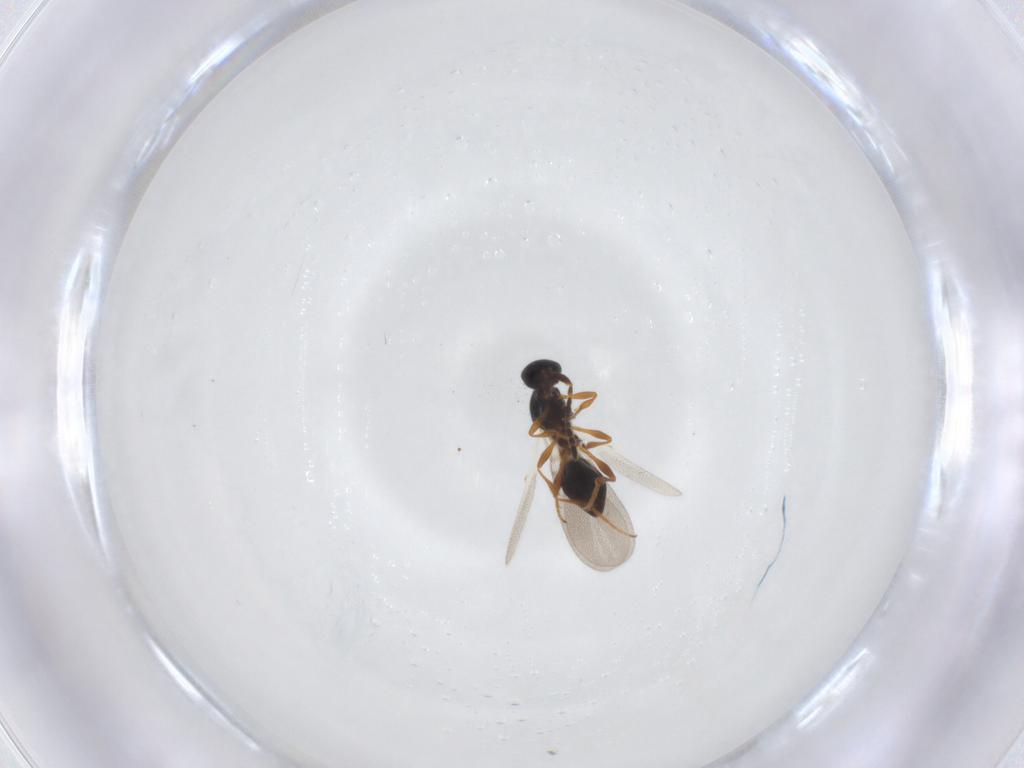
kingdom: Animalia
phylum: Arthropoda
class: Insecta
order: Hymenoptera
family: Platygastridae
